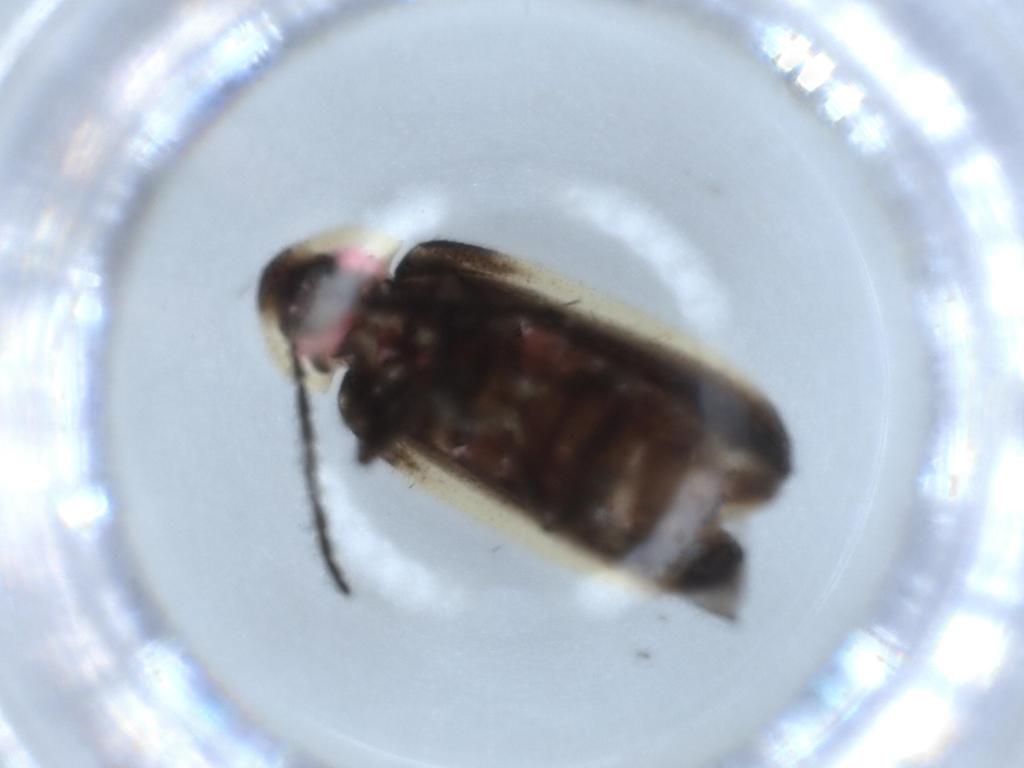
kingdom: Animalia
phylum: Arthropoda
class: Insecta
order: Coleoptera
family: Lampyridae
